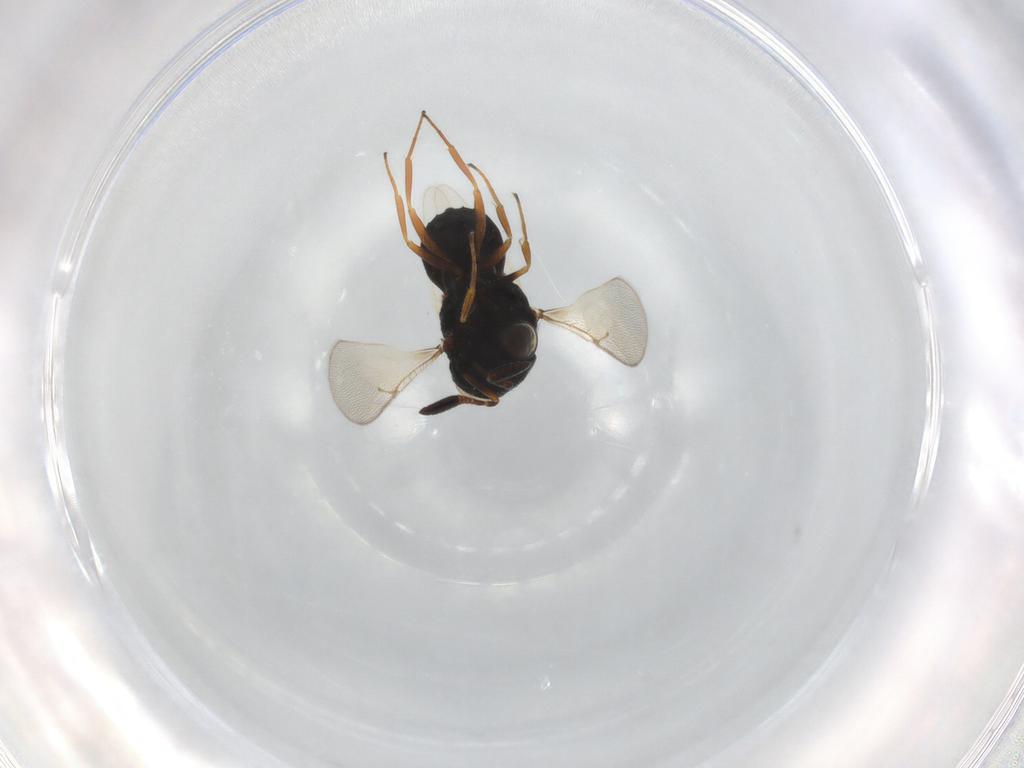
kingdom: Animalia
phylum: Arthropoda
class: Insecta
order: Hymenoptera
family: Scelionidae
